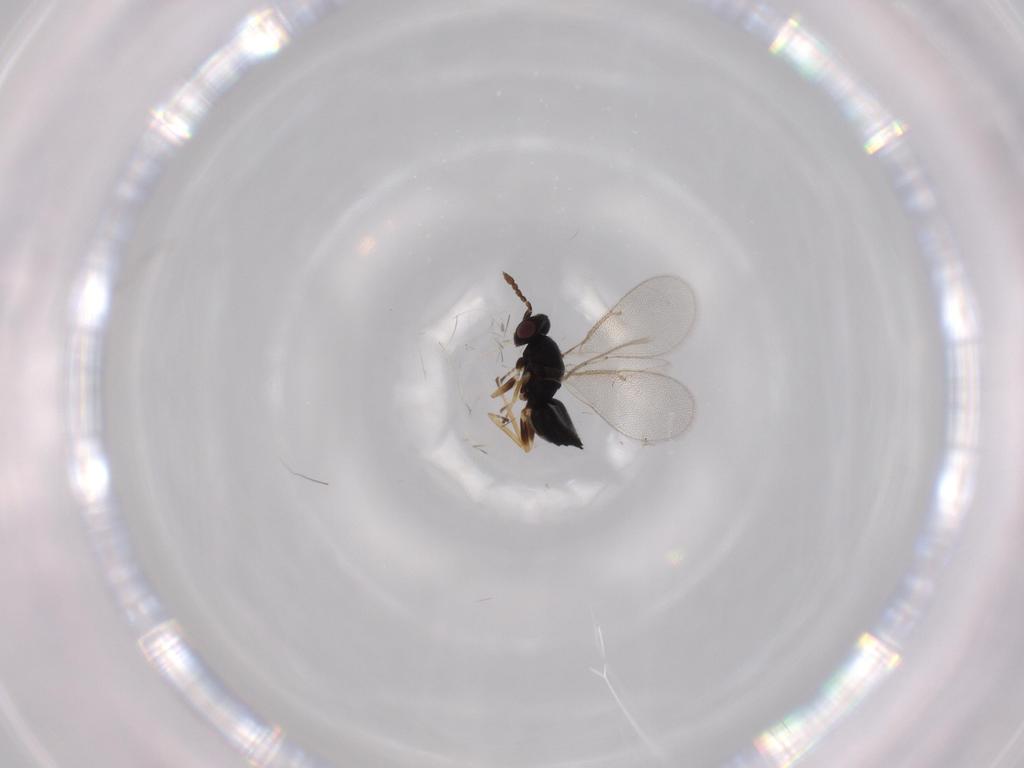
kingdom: Animalia
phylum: Arthropoda
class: Insecta
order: Hymenoptera
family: Eulophidae
